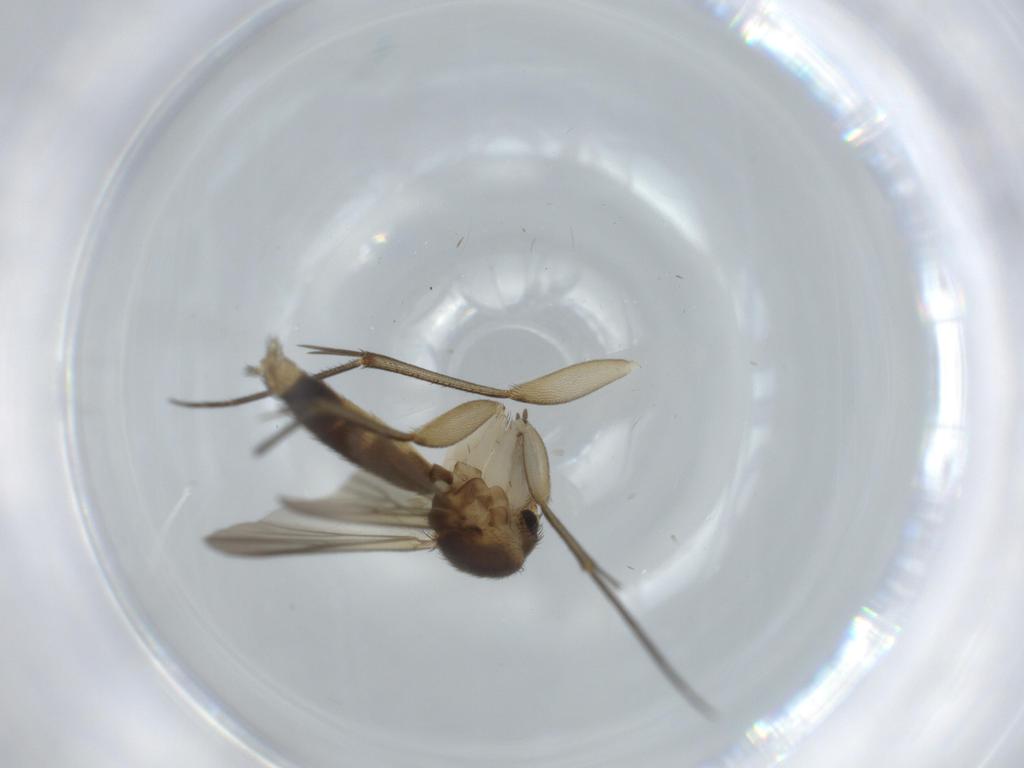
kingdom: Animalia
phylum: Arthropoda
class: Insecta
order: Diptera
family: Mycetophilidae
